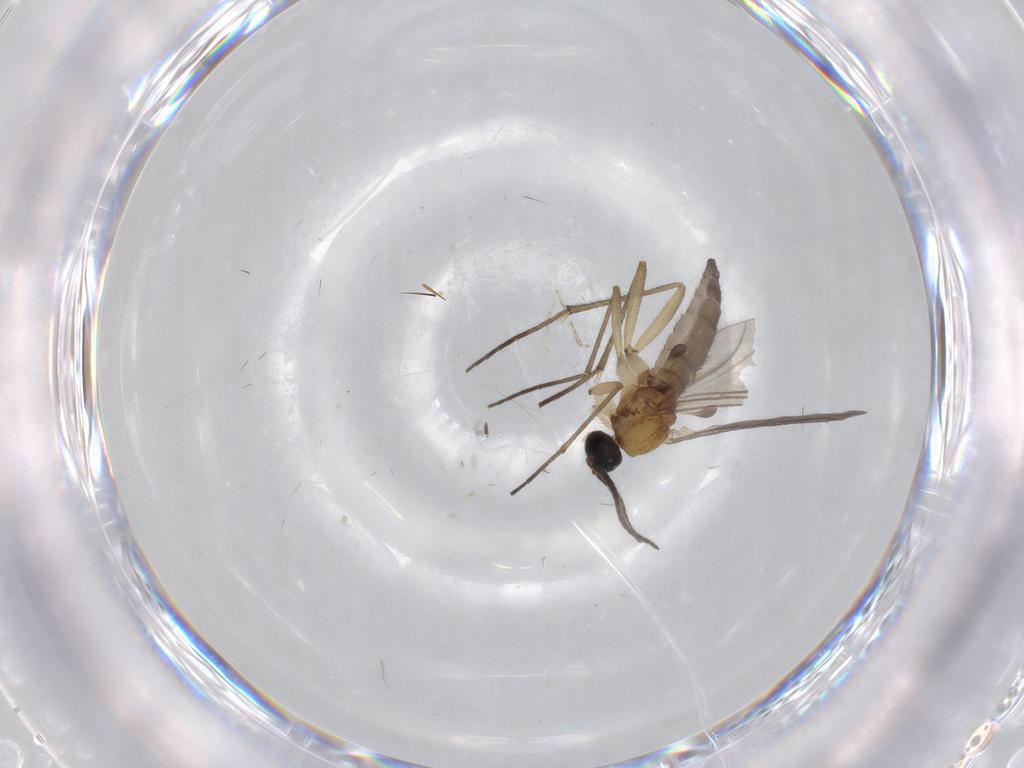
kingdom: Animalia
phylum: Arthropoda
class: Insecta
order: Diptera
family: Cecidomyiidae
